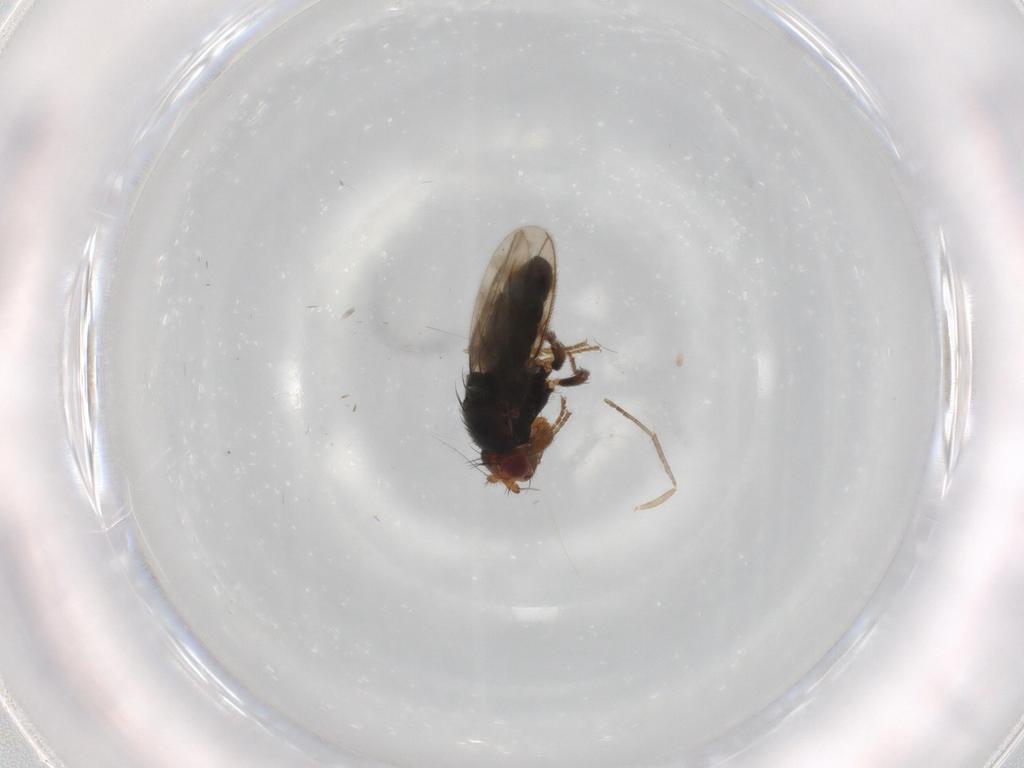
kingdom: Animalia
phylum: Arthropoda
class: Insecta
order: Diptera
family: Sphaeroceridae
